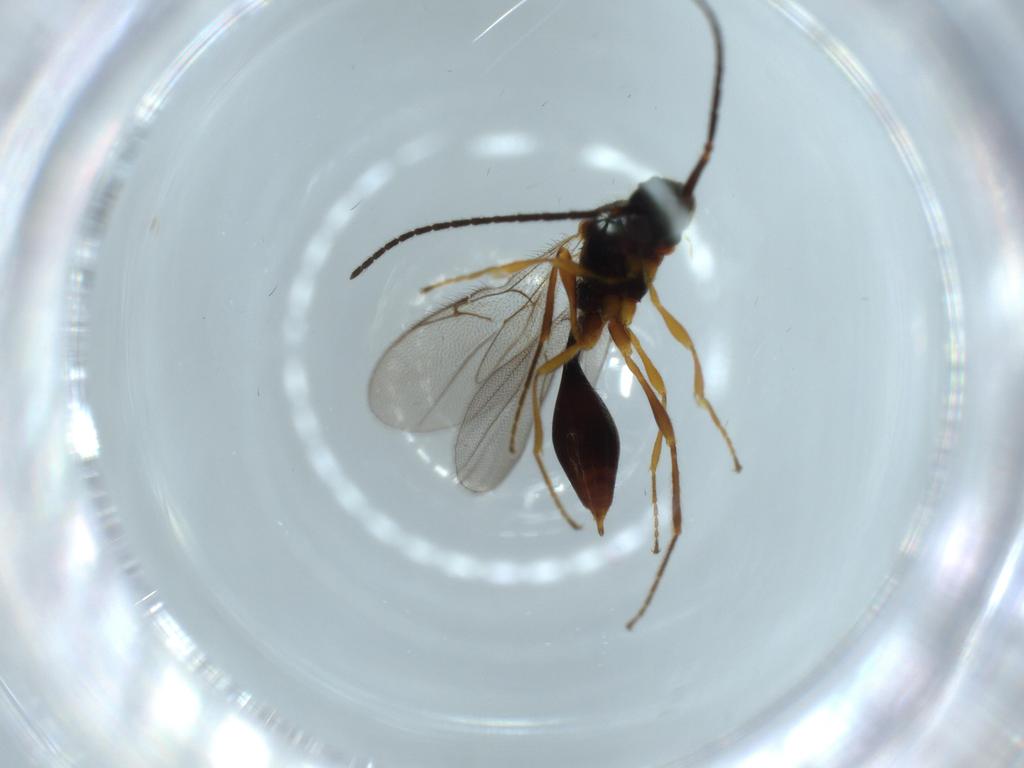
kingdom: Animalia
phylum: Arthropoda
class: Insecta
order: Hymenoptera
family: Diapriidae
